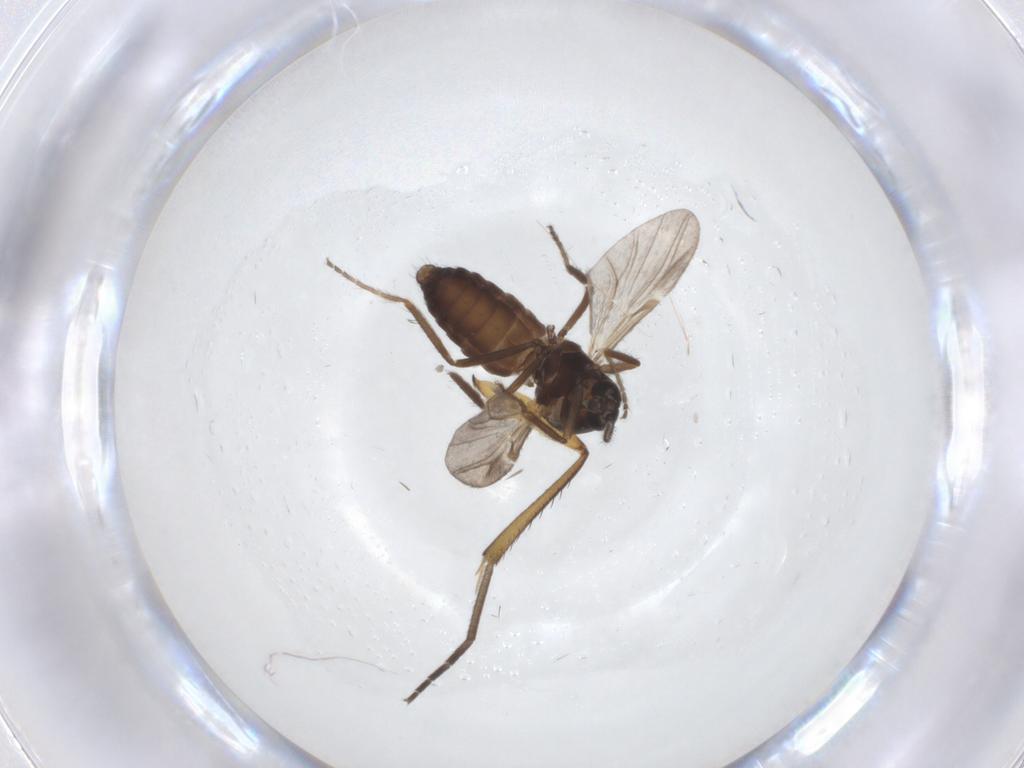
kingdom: Animalia
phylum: Arthropoda
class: Insecta
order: Diptera
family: Ceratopogonidae
